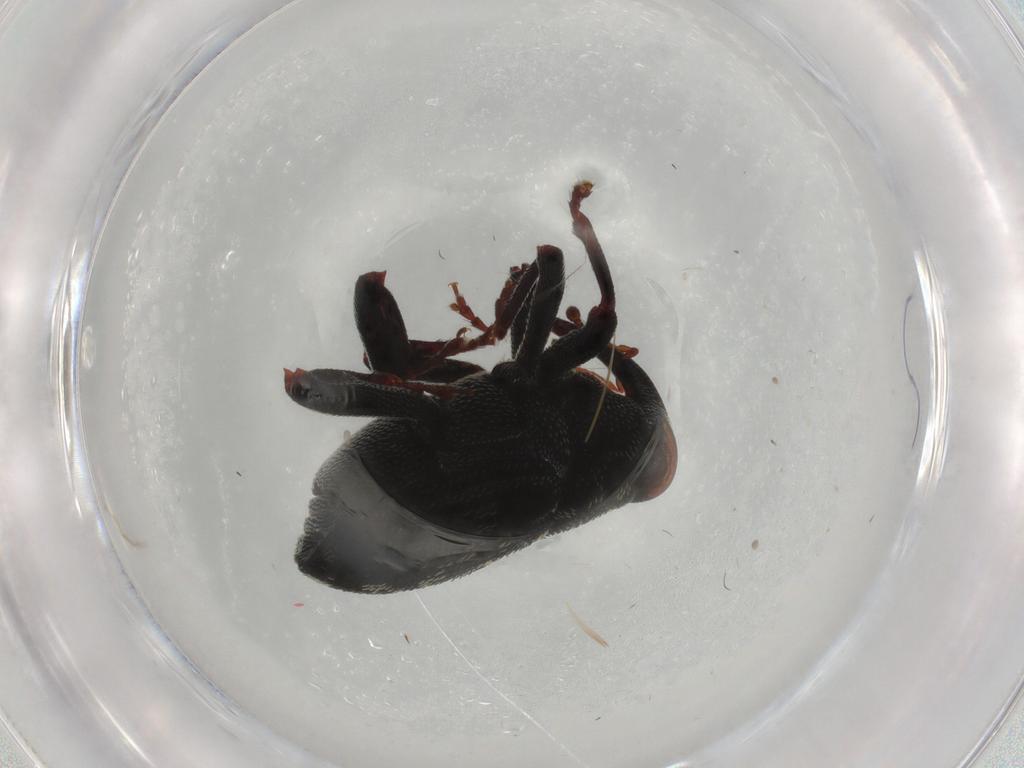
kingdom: Animalia
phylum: Arthropoda
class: Insecta
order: Coleoptera
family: Curculionidae
